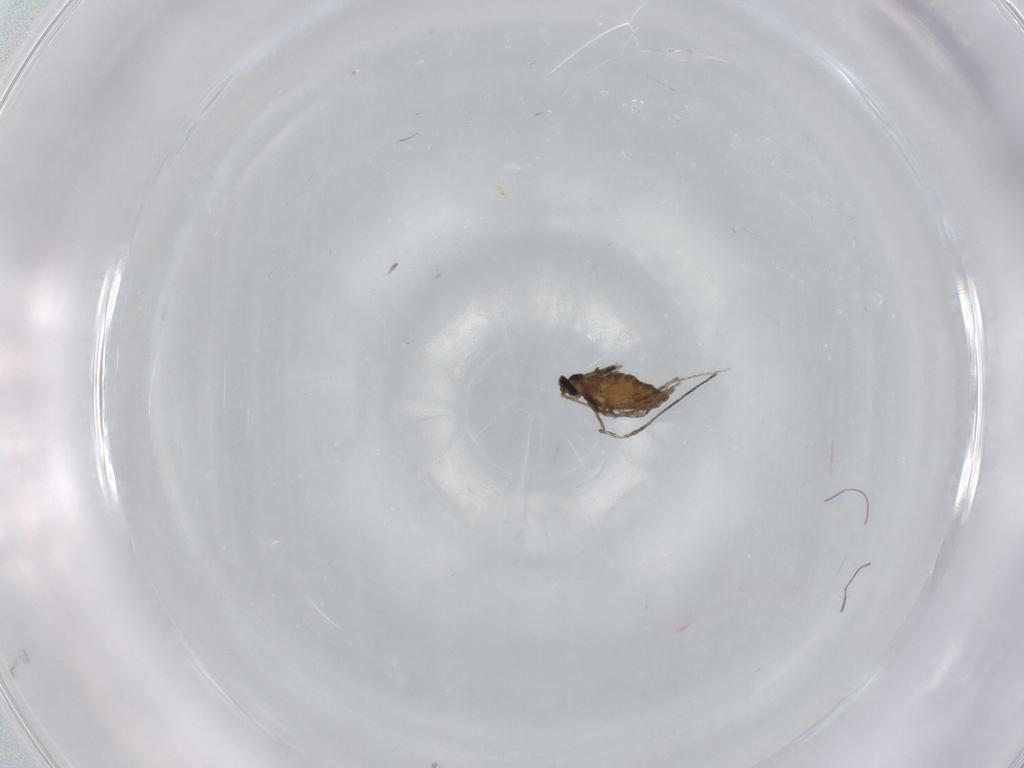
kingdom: Animalia
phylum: Arthropoda
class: Insecta
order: Diptera
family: Cecidomyiidae
